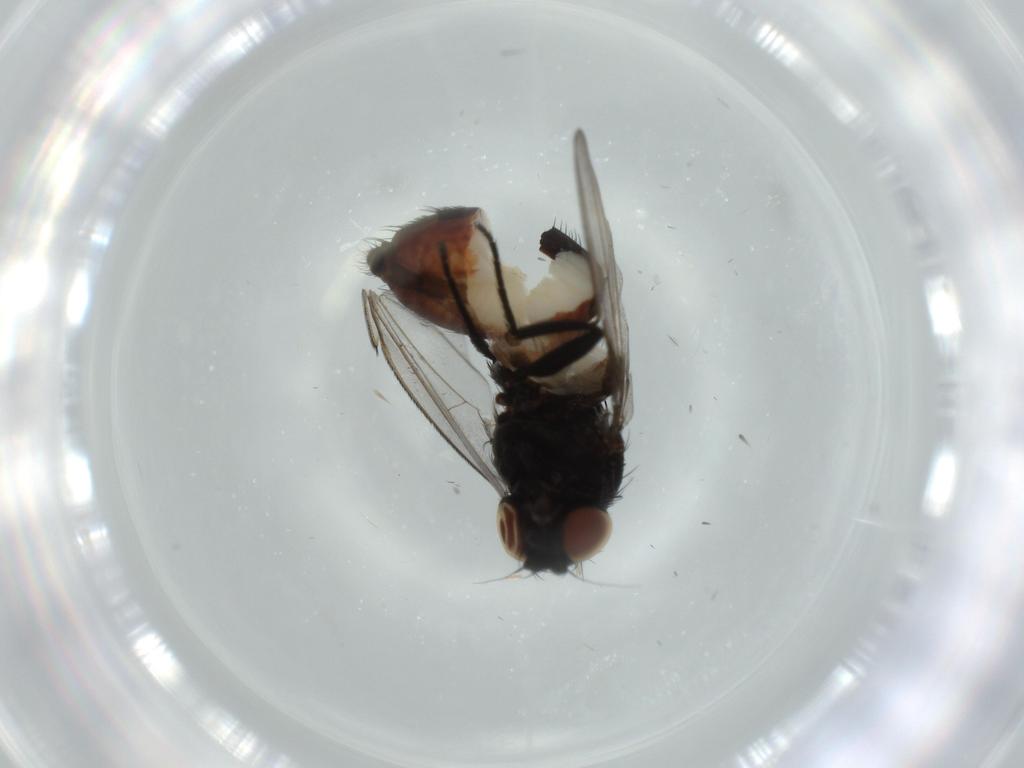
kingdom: Animalia
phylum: Arthropoda
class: Insecta
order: Diptera
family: Milichiidae
